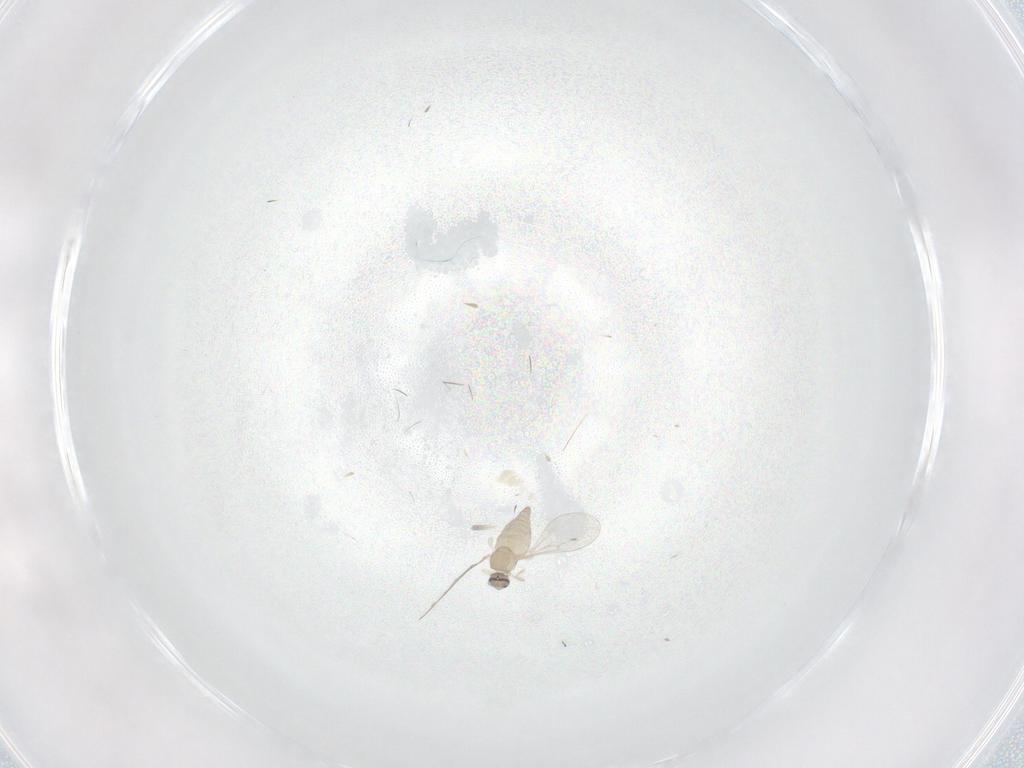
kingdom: Animalia
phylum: Arthropoda
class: Insecta
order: Diptera
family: Cecidomyiidae
